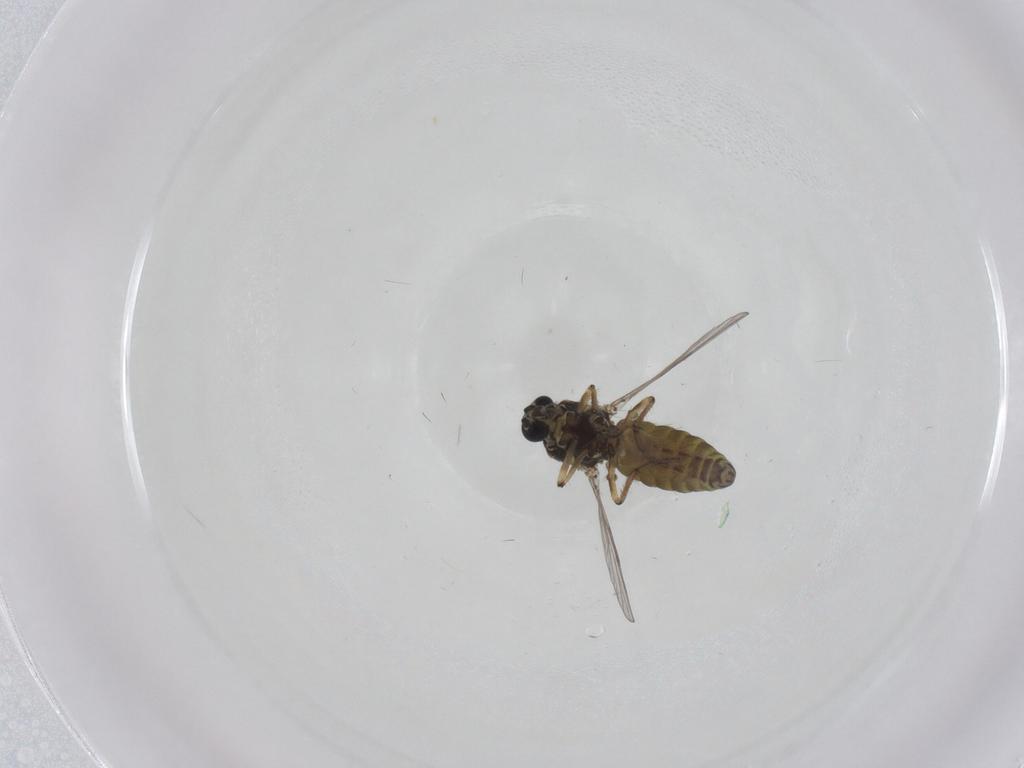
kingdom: Animalia
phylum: Arthropoda
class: Insecta
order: Diptera
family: Ceratopogonidae
